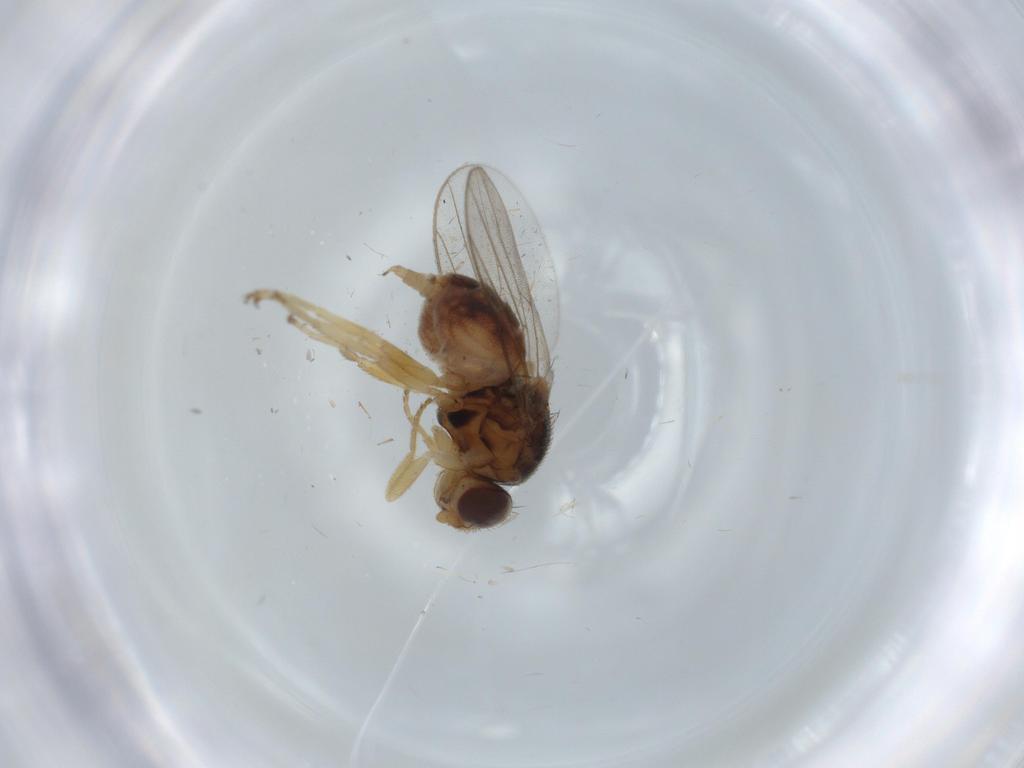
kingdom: Animalia
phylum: Arthropoda
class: Insecta
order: Diptera
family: Chloropidae
